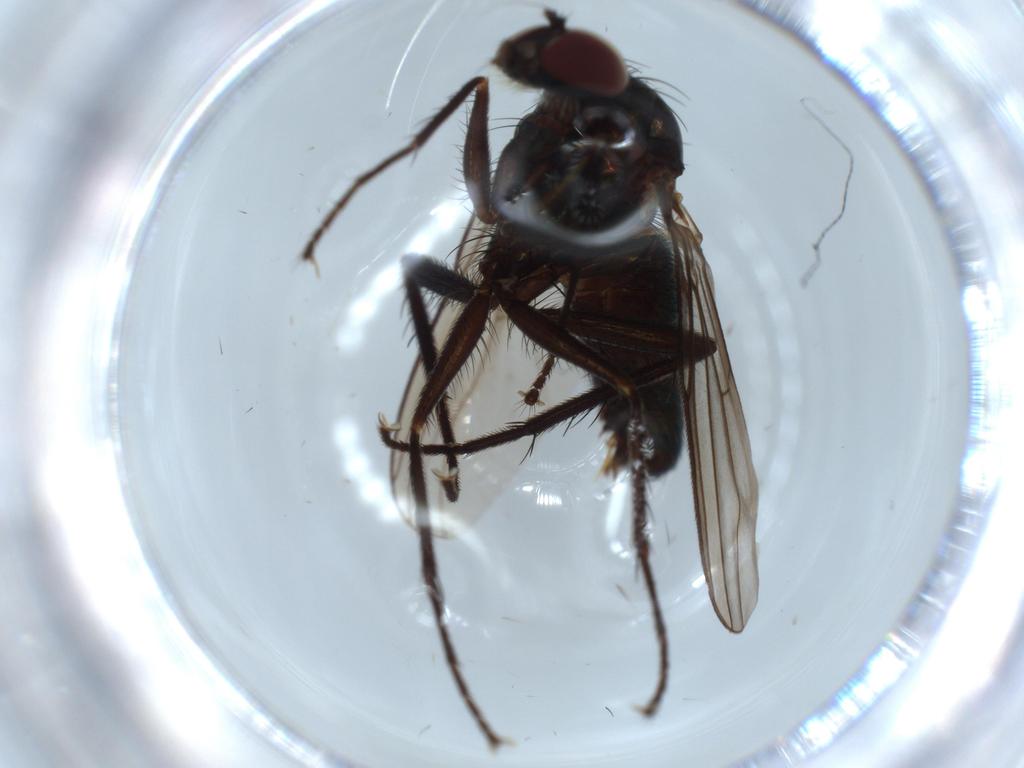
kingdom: Animalia
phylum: Arthropoda
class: Insecta
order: Diptera
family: Dolichopodidae
